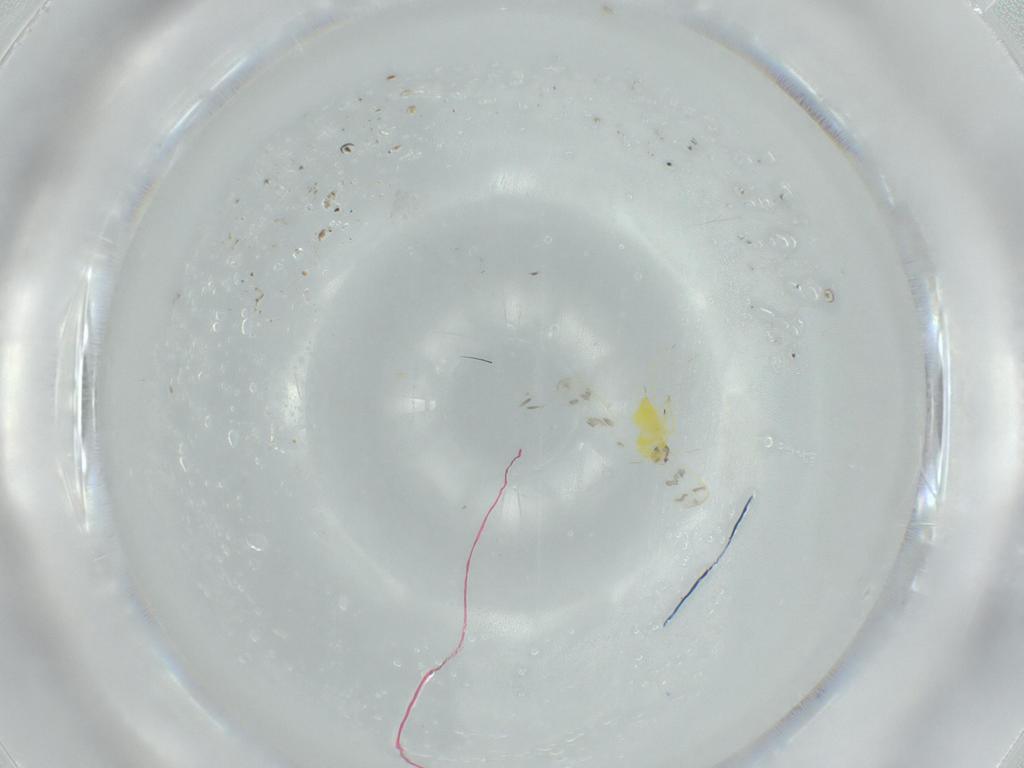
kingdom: Animalia
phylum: Arthropoda
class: Insecta
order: Hemiptera
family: Aleyrodidae
